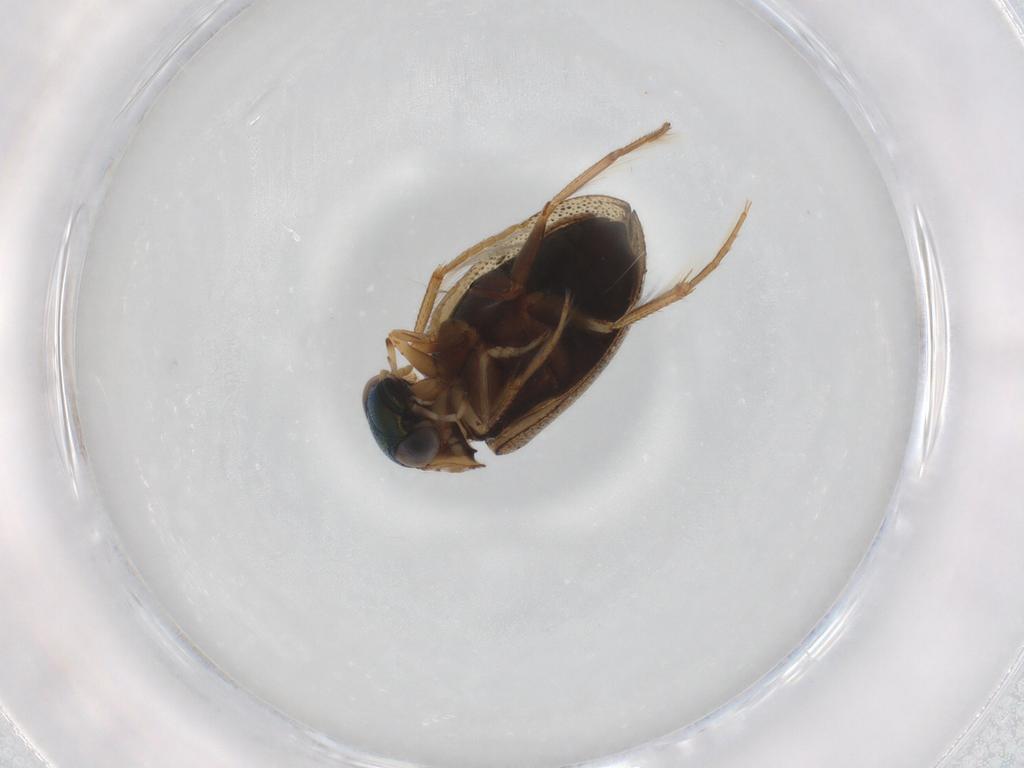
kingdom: Animalia
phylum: Arthropoda
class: Insecta
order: Coleoptera
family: Hydrophilidae
